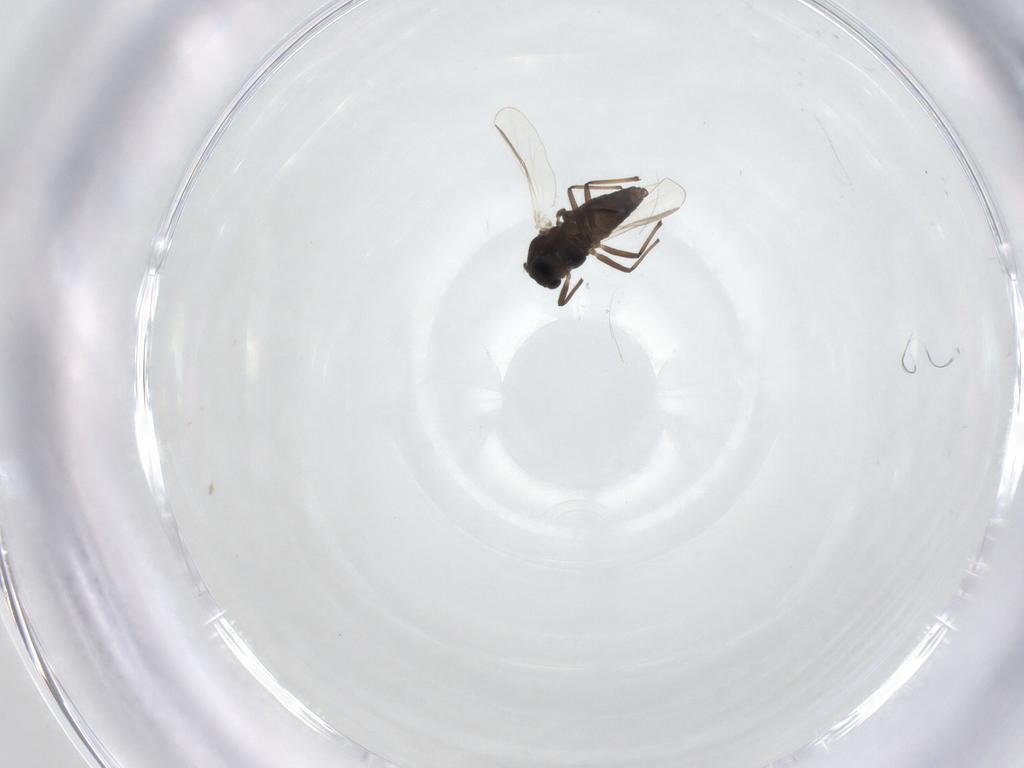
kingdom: Animalia
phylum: Arthropoda
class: Insecta
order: Diptera
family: Chironomidae
